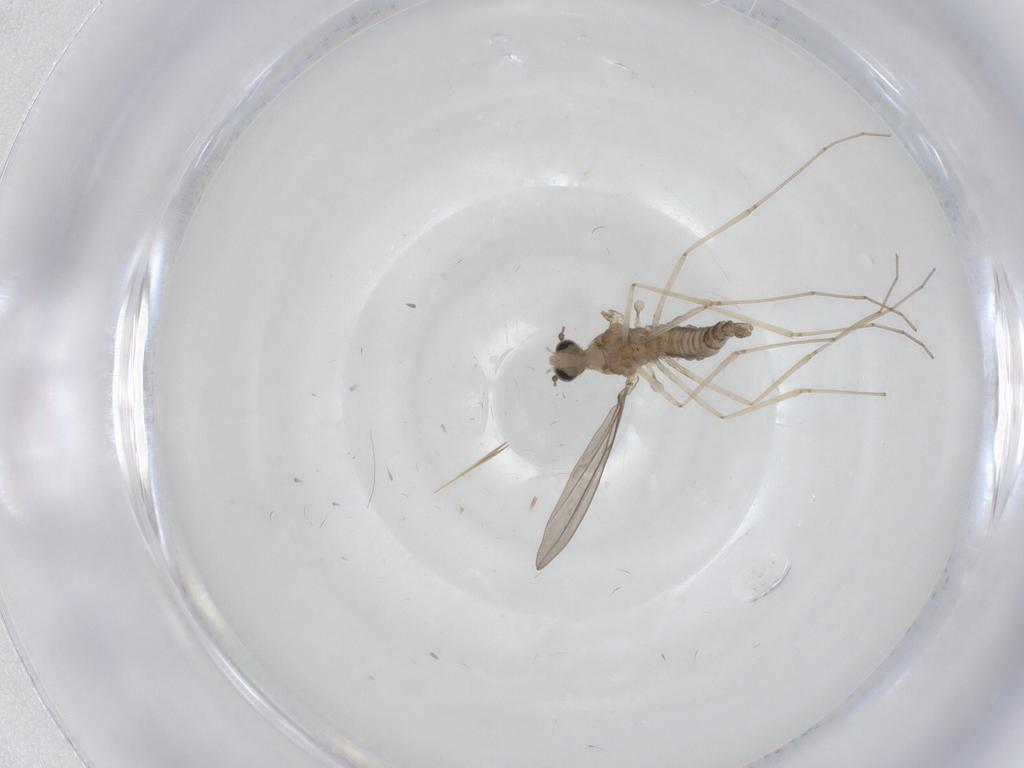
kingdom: Animalia
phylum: Arthropoda
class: Insecta
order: Diptera
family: Cecidomyiidae
